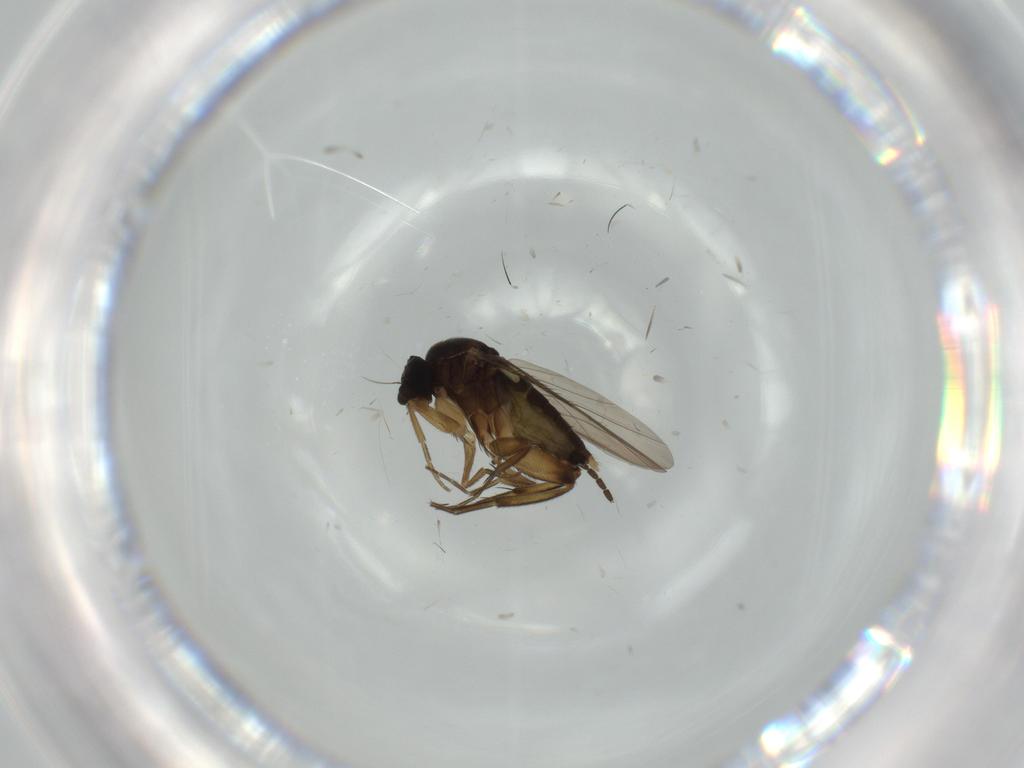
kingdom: Animalia
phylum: Arthropoda
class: Insecta
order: Diptera
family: Phoridae
